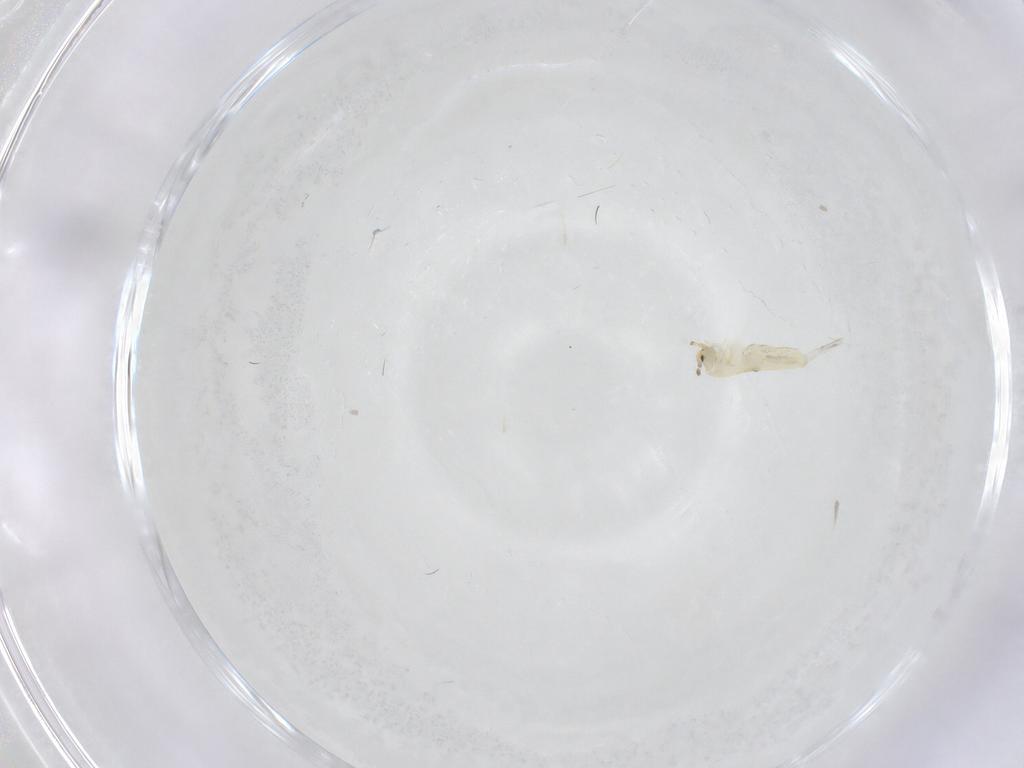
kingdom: Animalia
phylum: Arthropoda
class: Collembola
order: Entomobryomorpha
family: Entomobryidae
